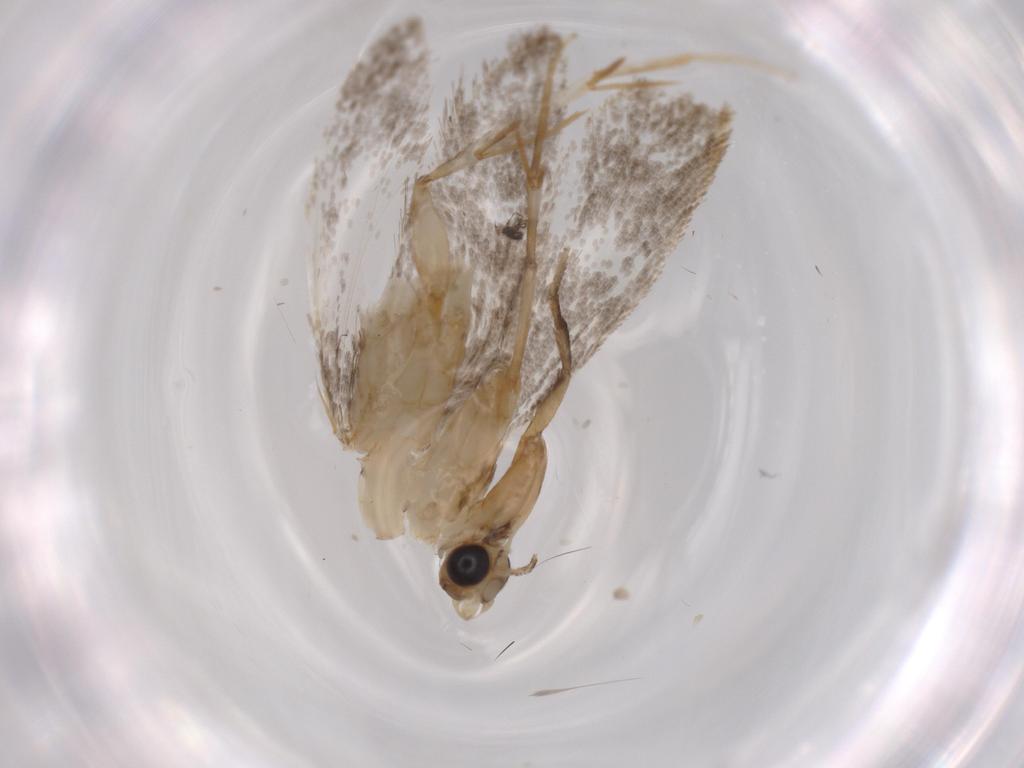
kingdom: Animalia
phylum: Arthropoda
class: Insecta
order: Lepidoptera
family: Tineidae
